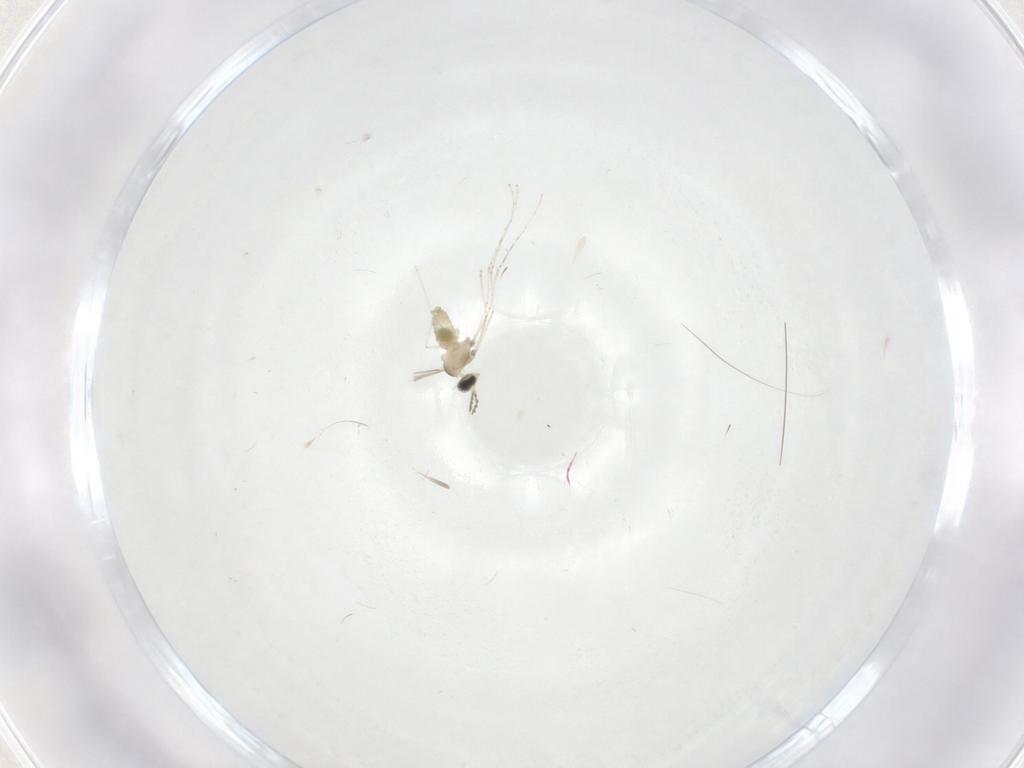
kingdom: Animalia
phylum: Arthropoda
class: Insecta
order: Diptera
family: Cecidomyiidae
